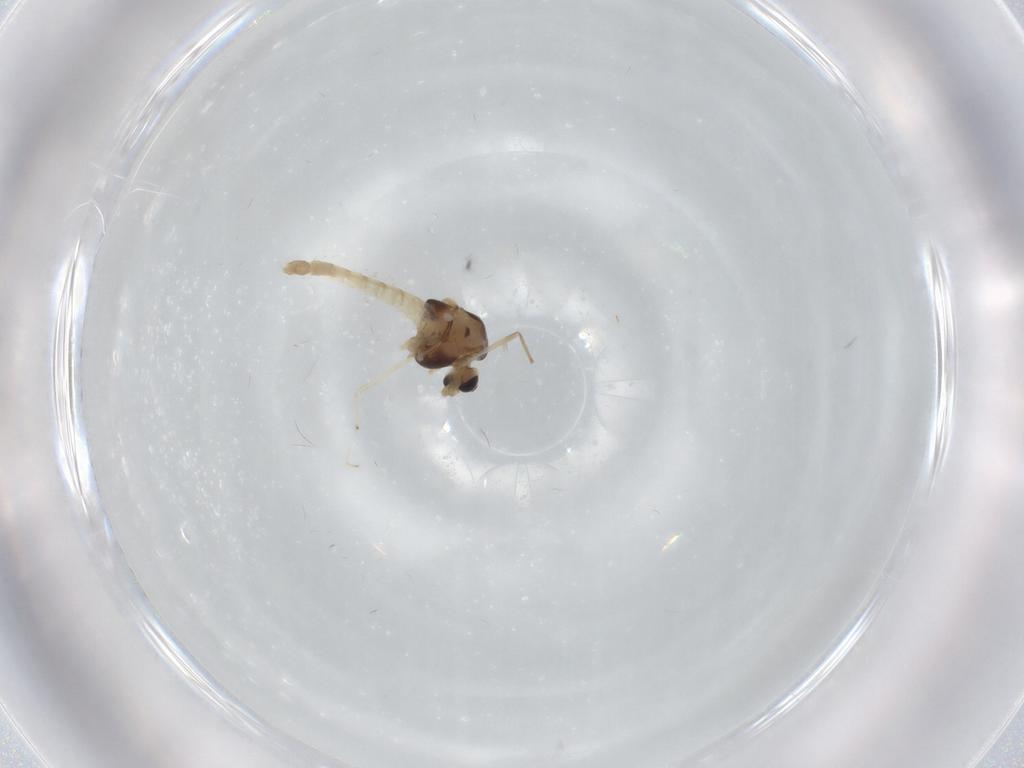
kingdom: Animalia
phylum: Arthropoda
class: Insecta
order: Diptera
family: Chironomidae
